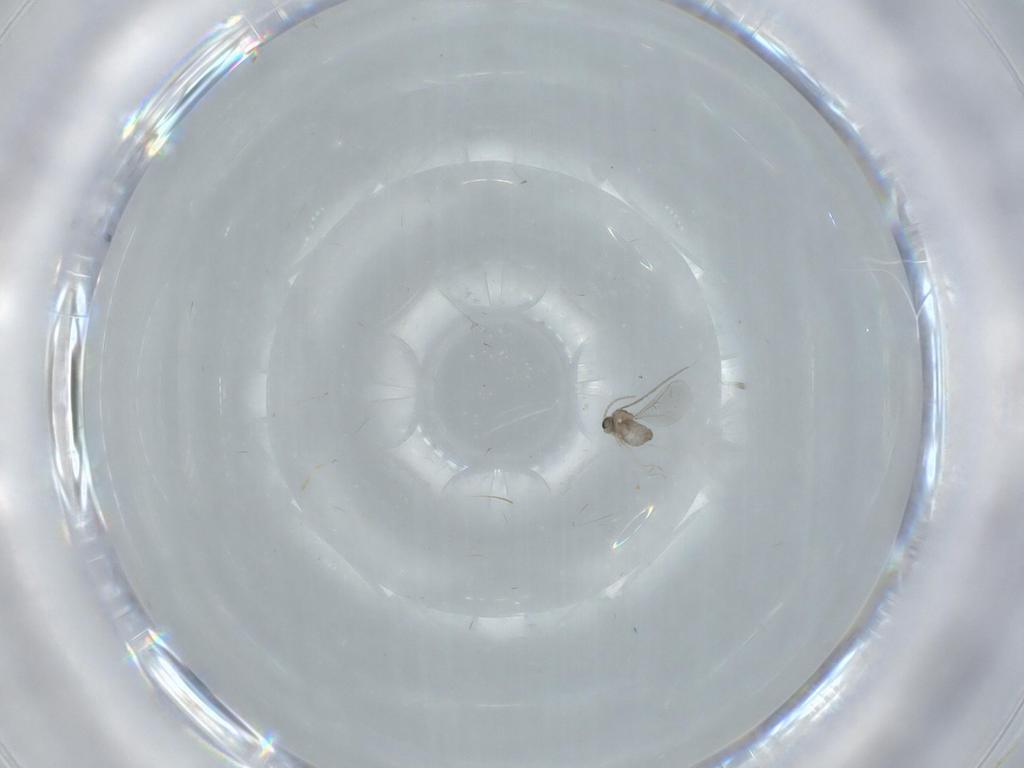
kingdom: Animalia
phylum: Arthropoda
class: Insecta
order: Diptera
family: Cecidomyiidae
